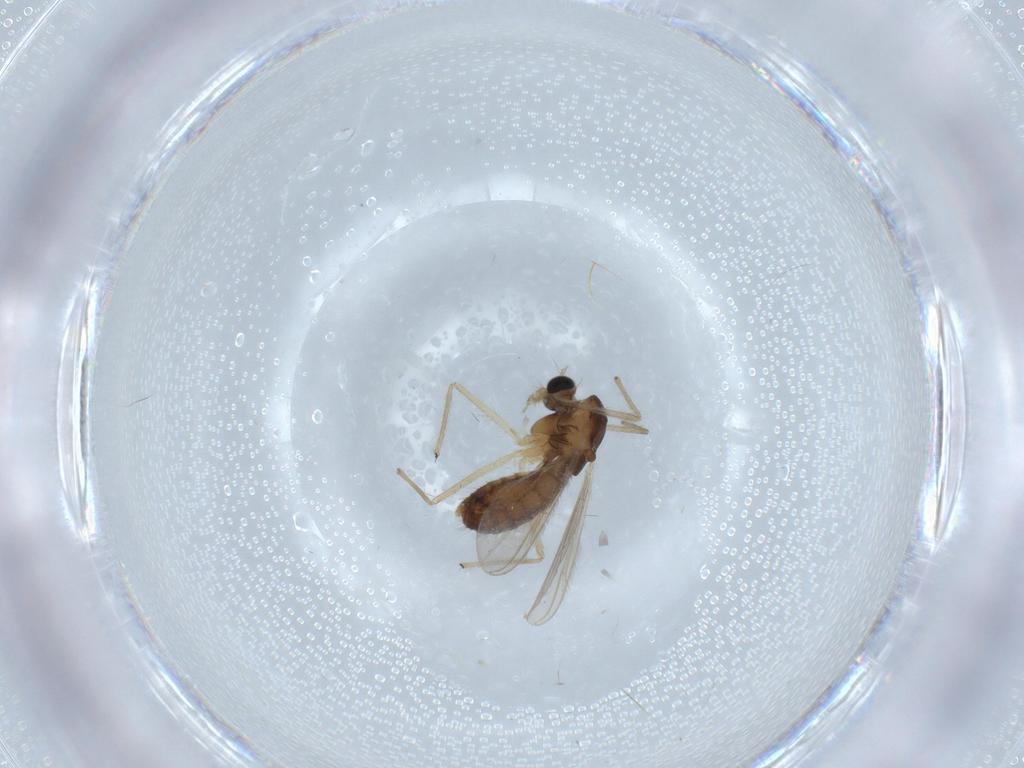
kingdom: Animalia
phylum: Arthropoda
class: Insecta
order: Diptera
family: Chironomidae
